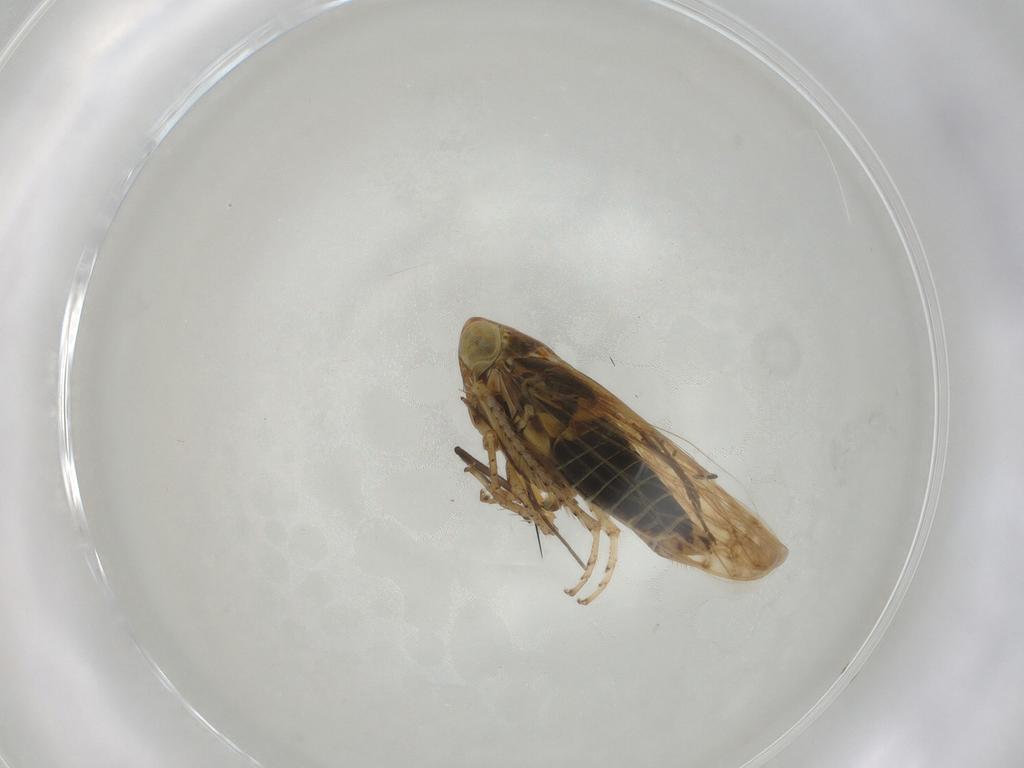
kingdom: Animalia
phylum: Arthropoda
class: Insecta
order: Hemiptera
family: Cicadellidae
